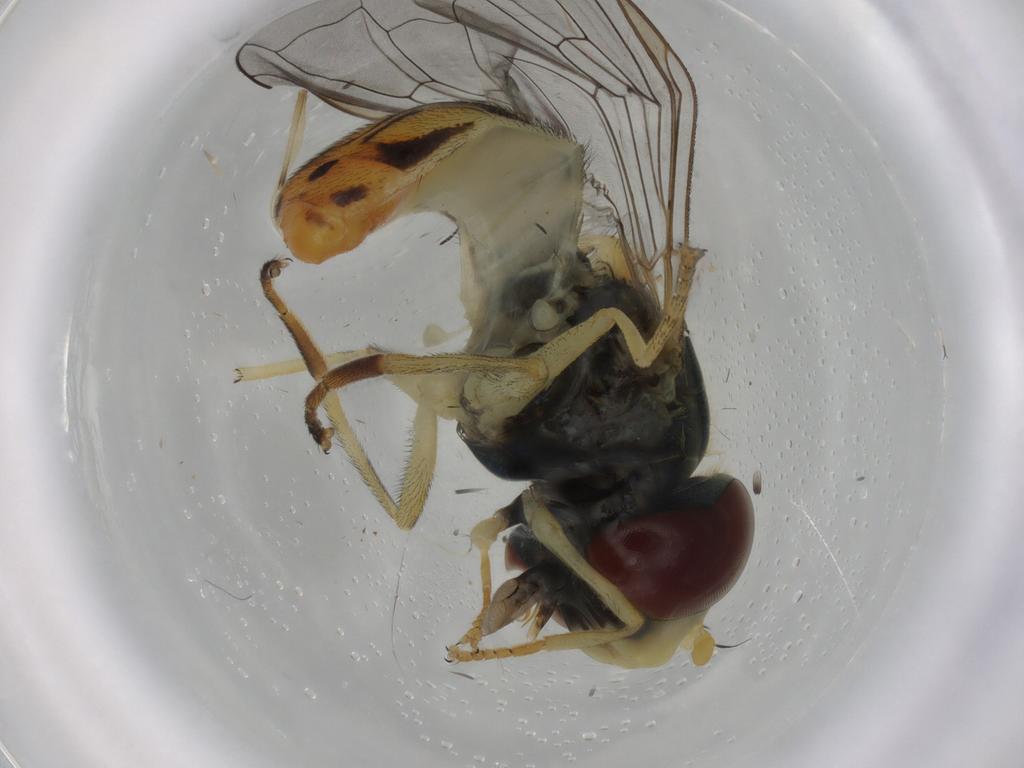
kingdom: Animalia
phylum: Arthropoda
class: Insecta
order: Diptera
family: Syrphidae
